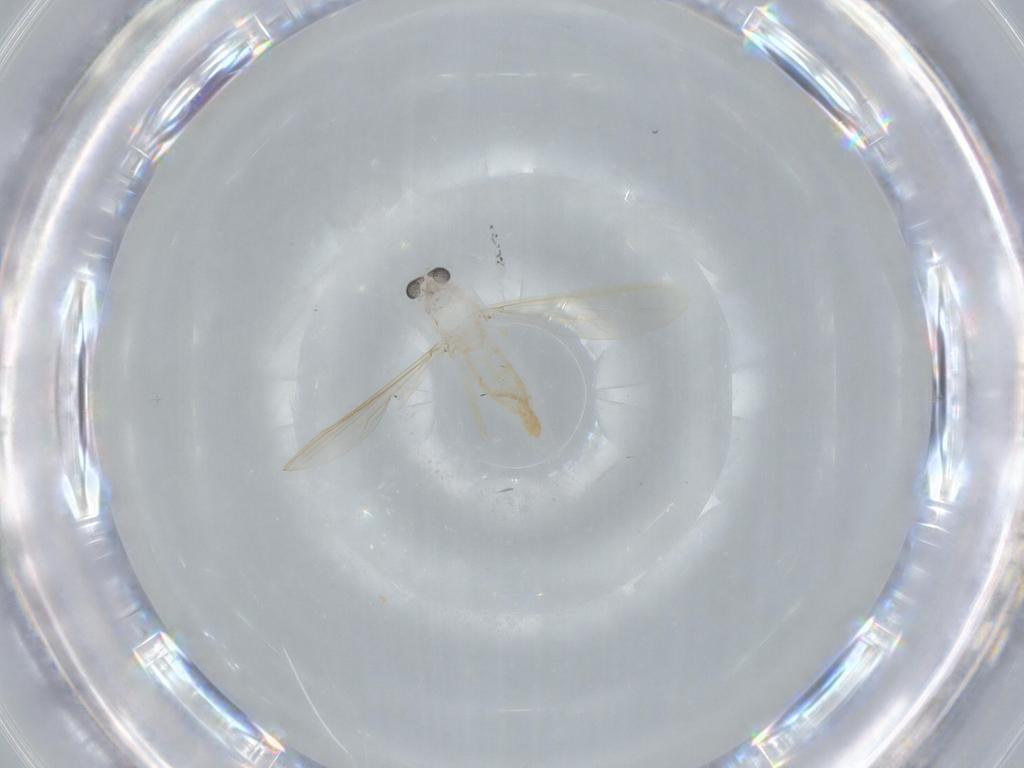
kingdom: Animalia
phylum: Arthropoda
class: Insecta
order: Diptera
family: Chironomidae
